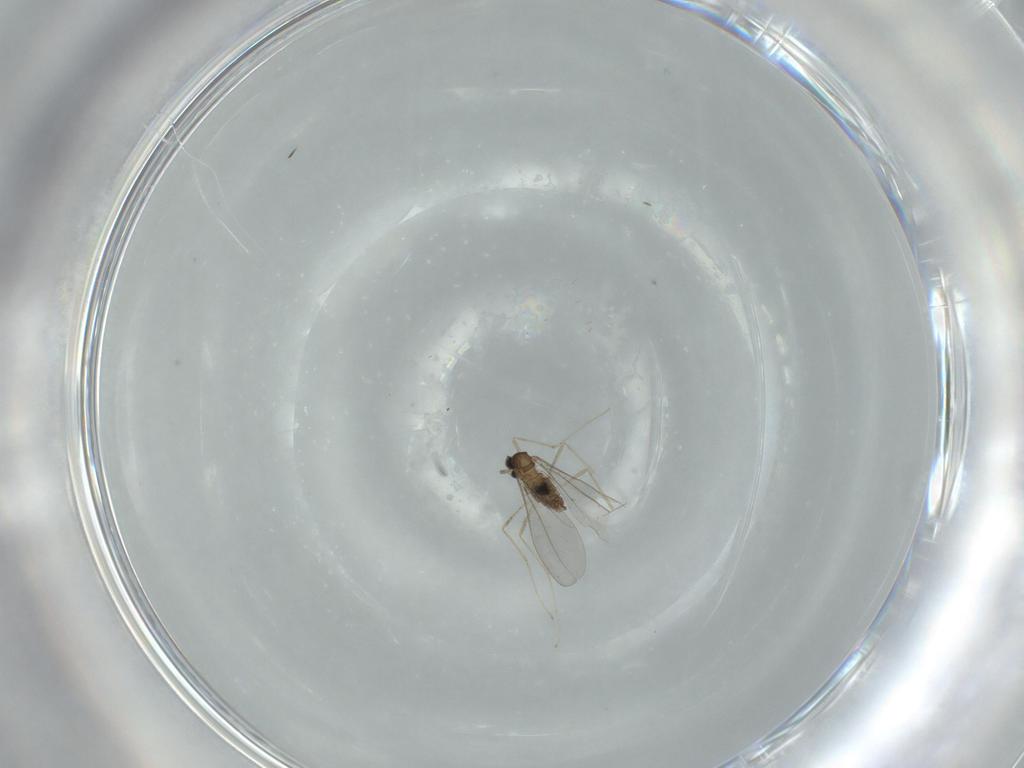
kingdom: Animalia
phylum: Arthropoda
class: Insecta
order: Diptera
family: Cecidomyiidae
